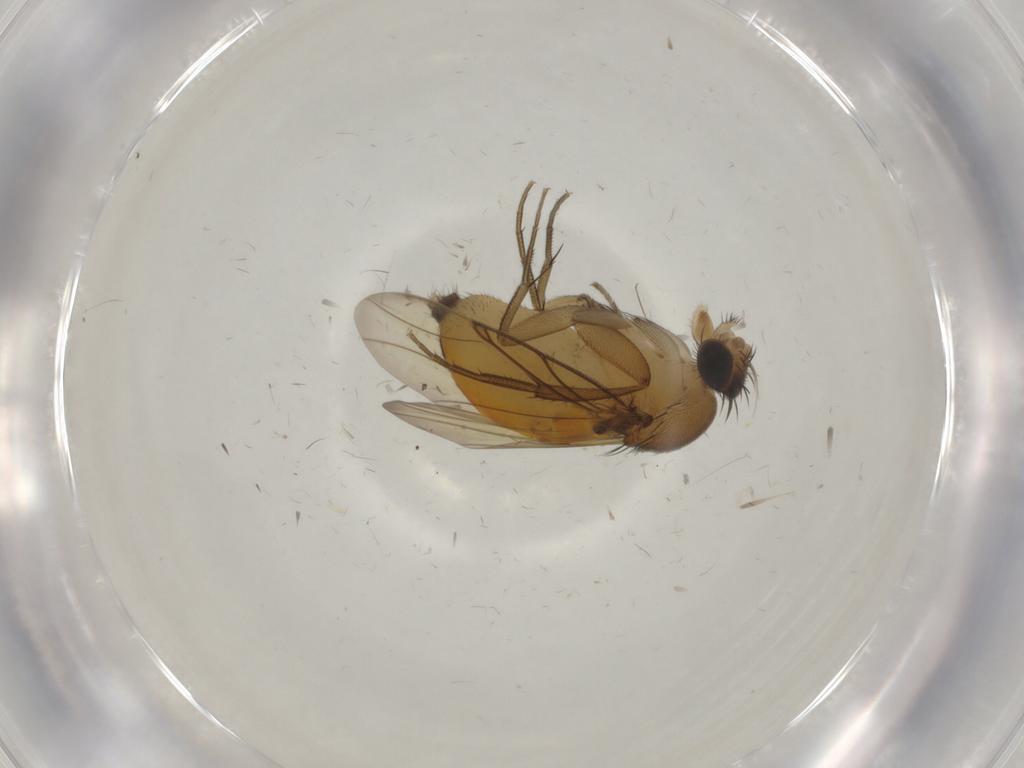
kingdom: Animalia
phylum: Arthropoda
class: Insecta
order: Diptera
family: Phoridae
